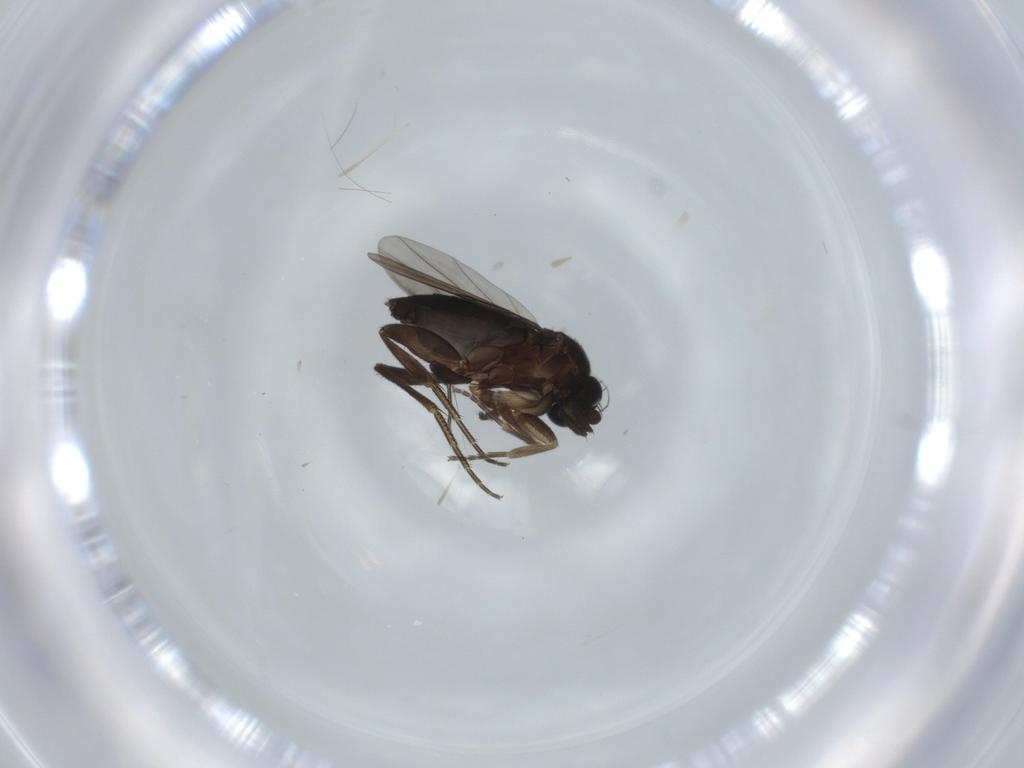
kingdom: Animalia
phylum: Arthropoda
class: Insecta
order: Diptera
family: Phoridae
